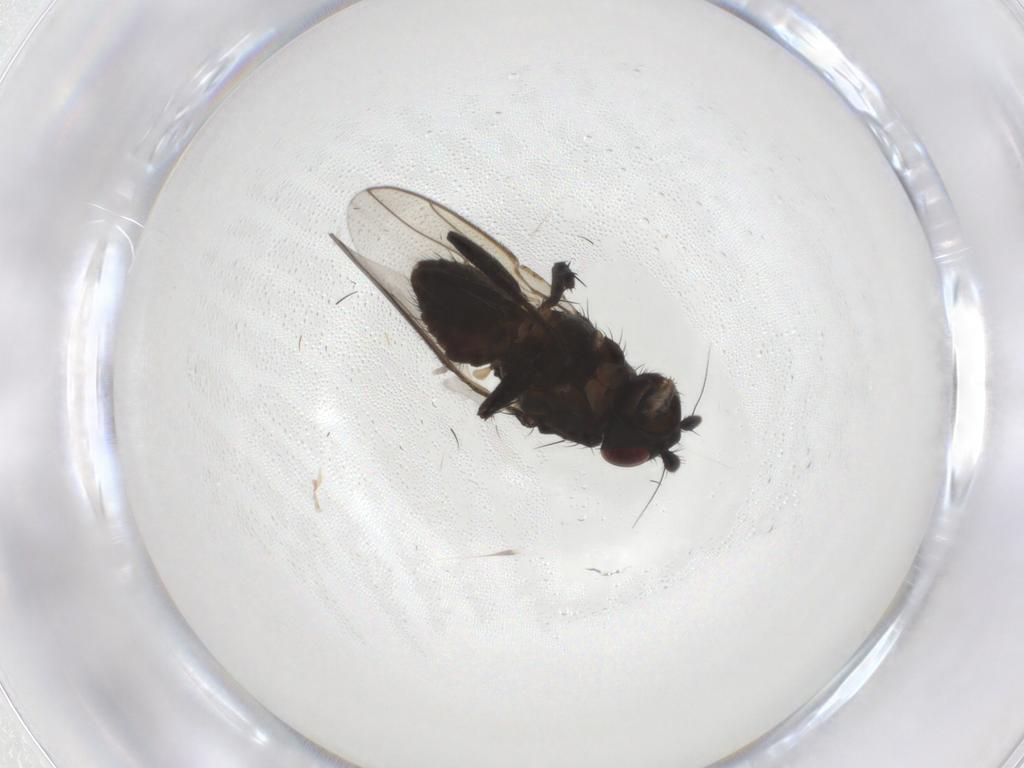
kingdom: Animalia
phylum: Arthropoda
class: Insecta
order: Diptera
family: Sphaeroceridae
